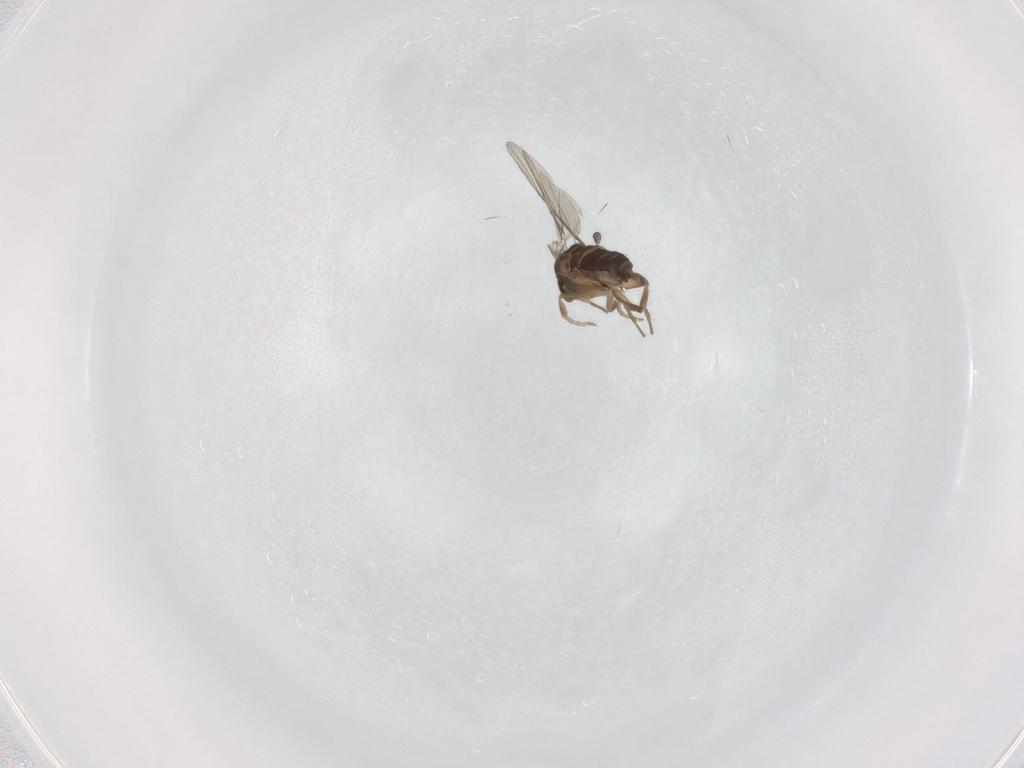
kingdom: Animalia
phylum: Arthropoda
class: Insecta
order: Diptera
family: Phoridae
